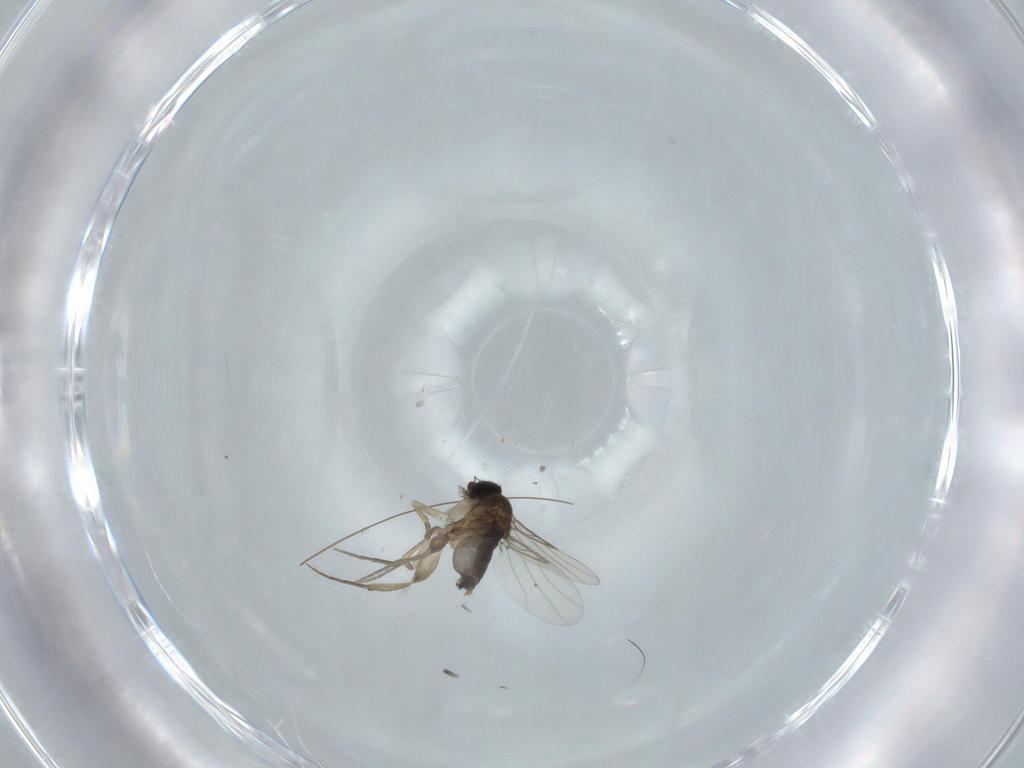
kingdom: Animalia
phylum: Arthropoda
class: Insecta
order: Diptera
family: Phoridae
